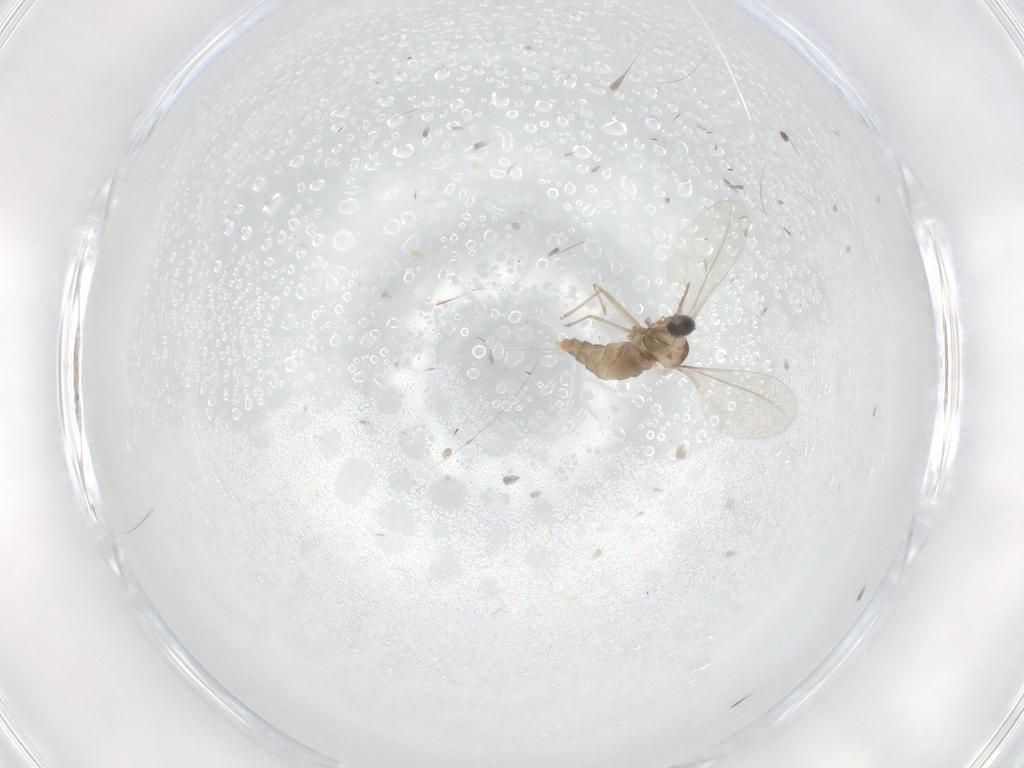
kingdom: Animalia
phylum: Arthropoda
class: Insecta
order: Diptera
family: Cecidomyiidae
